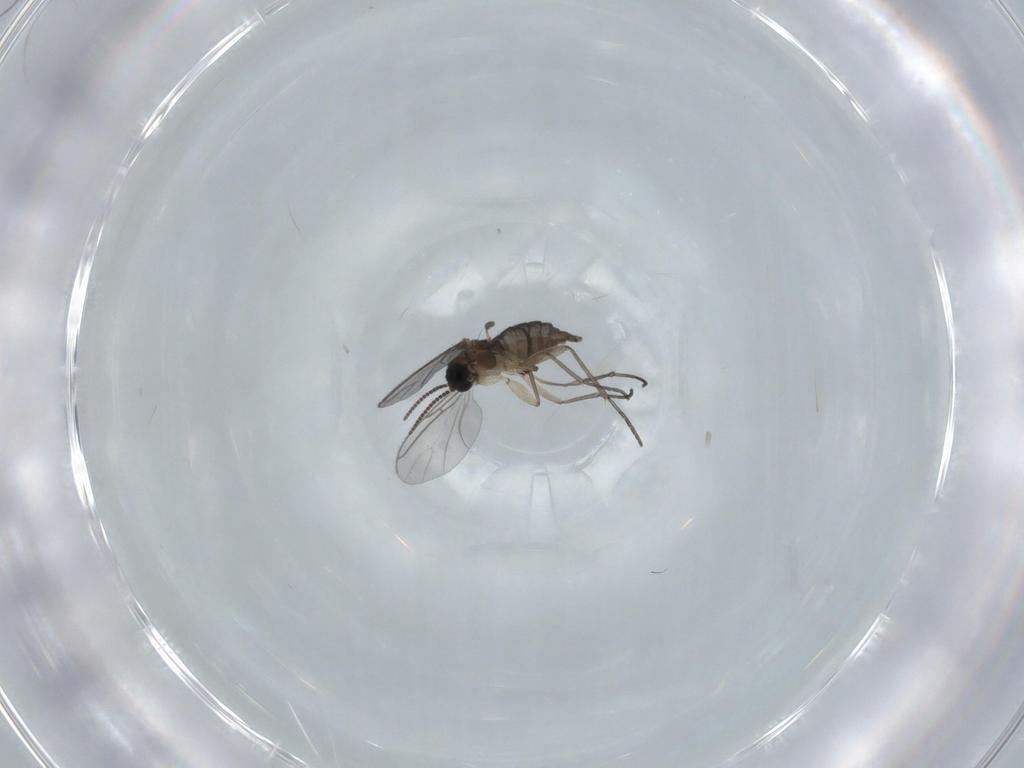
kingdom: Animalia
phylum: Arthropoda
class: Insecta
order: Diptera
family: Sciaridae
